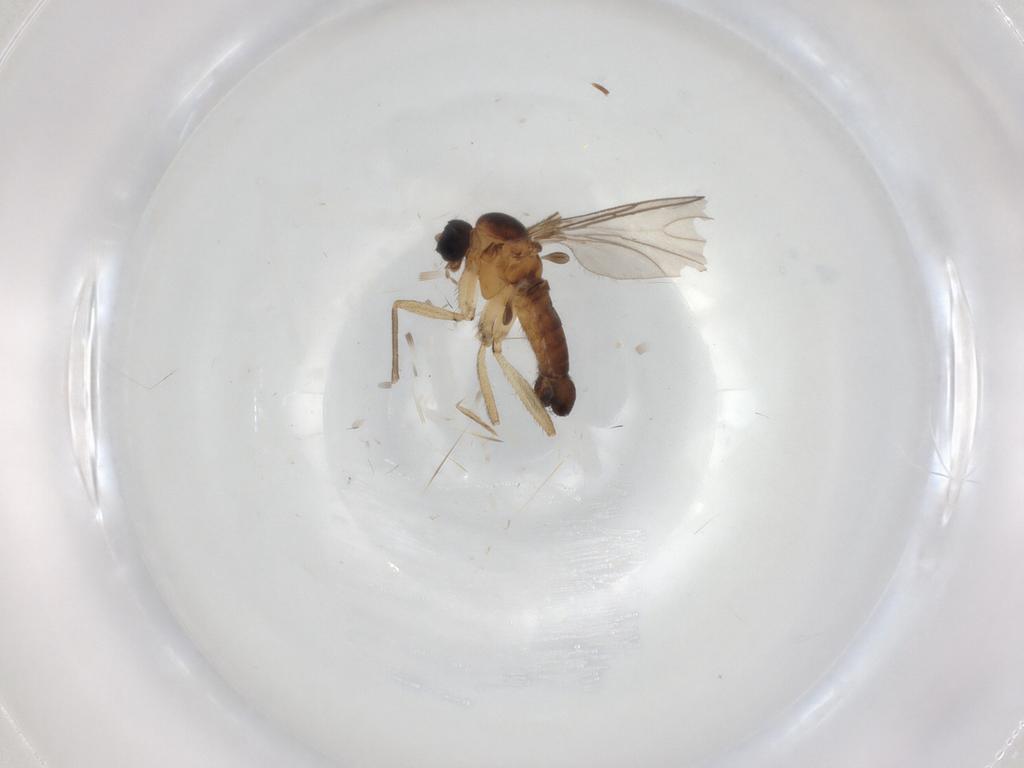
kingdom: Animalia
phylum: Arthropoda
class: Insecta
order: Diptera
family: Sciaridae
